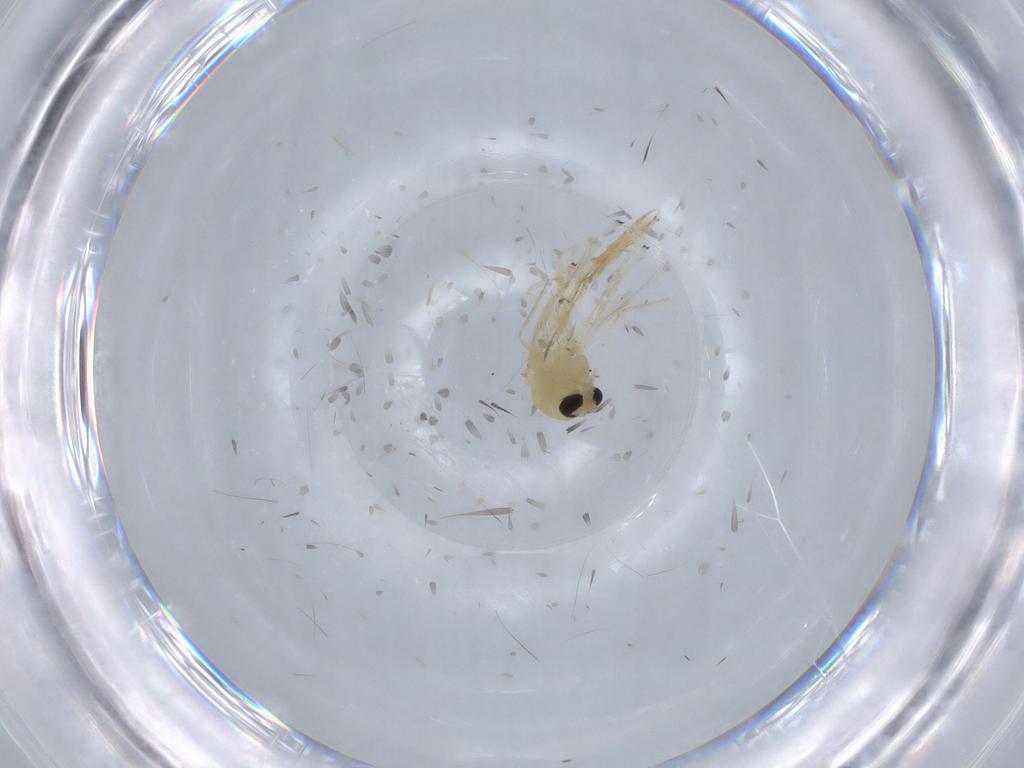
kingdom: Animalia
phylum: Arthropoda
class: Insecta
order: Diptera
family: Chironomidae
